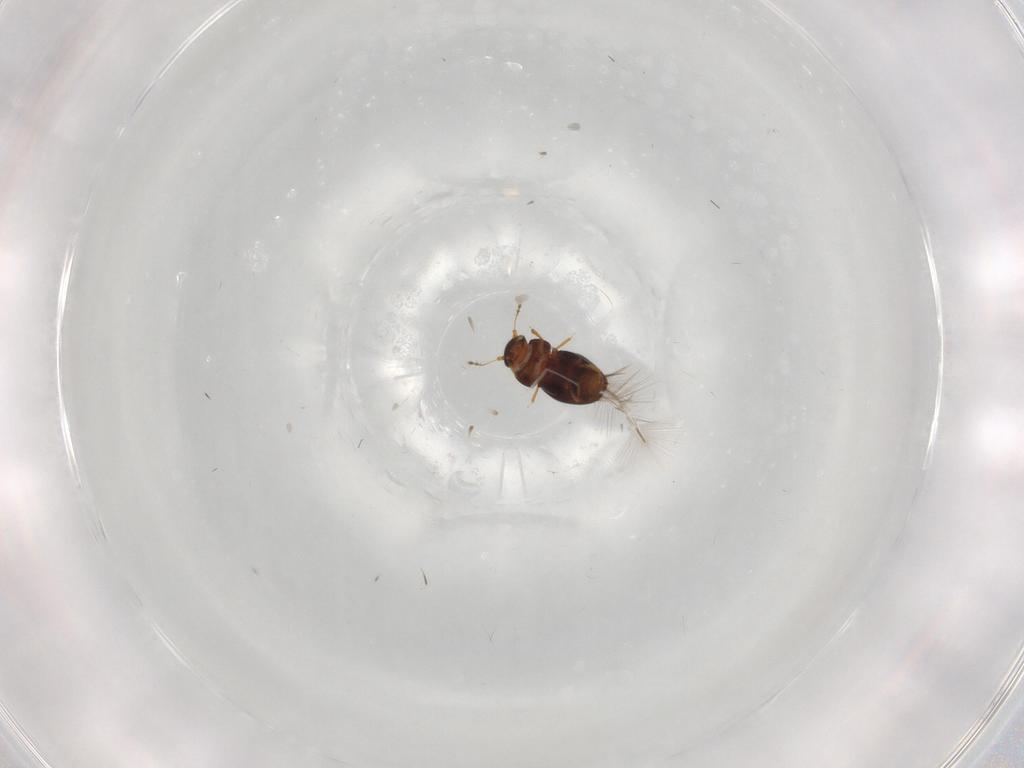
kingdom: Animalia
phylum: Arthropoda
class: Insecta
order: Coleoptera
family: Ptiliidae
